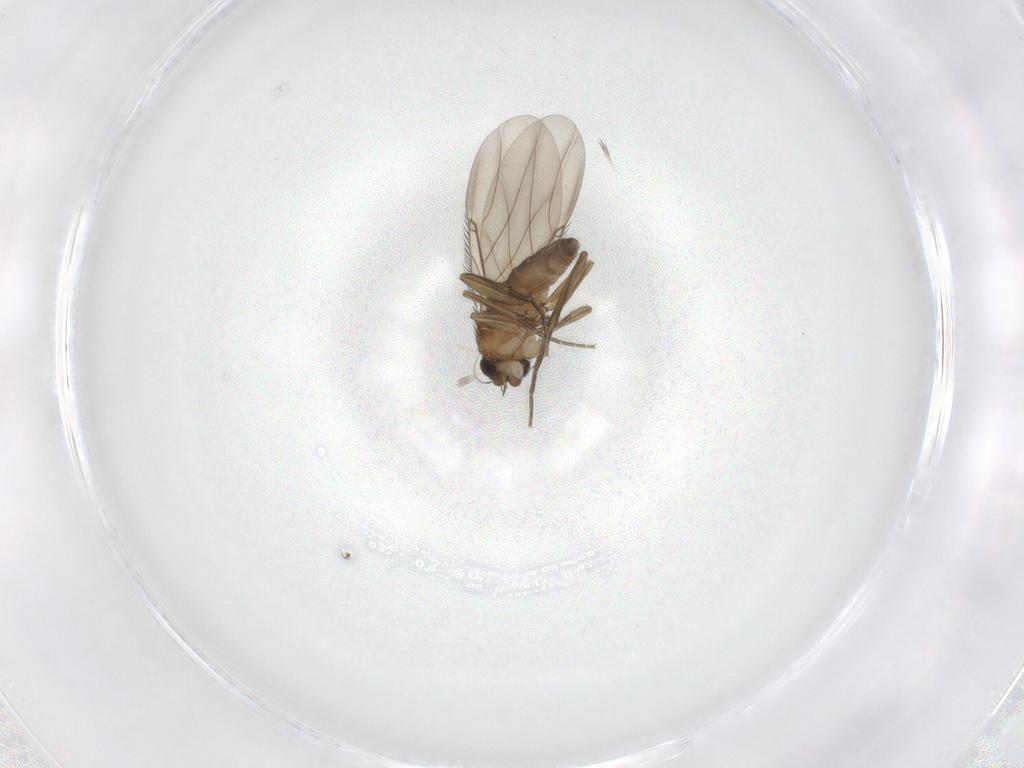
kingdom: Animalia
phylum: Arthropoda
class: Insecta
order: Diptera
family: Phoridae
